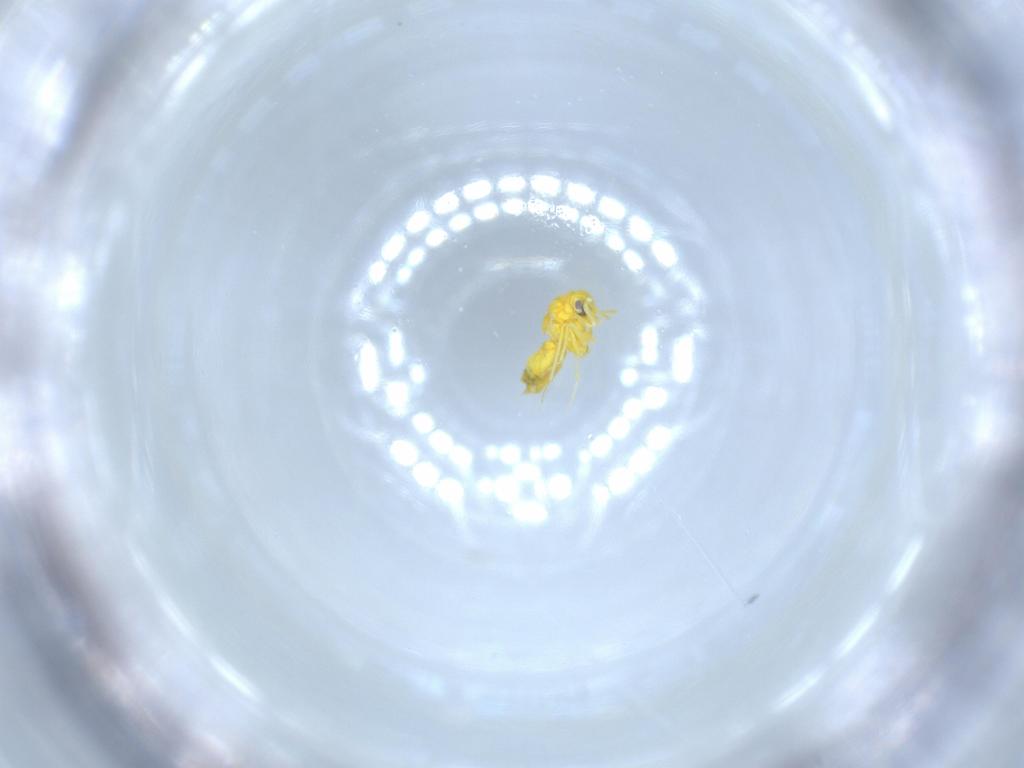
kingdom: Animalia
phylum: Arthropoda
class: Insecta
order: Hemiptera
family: Aleyrodidae
